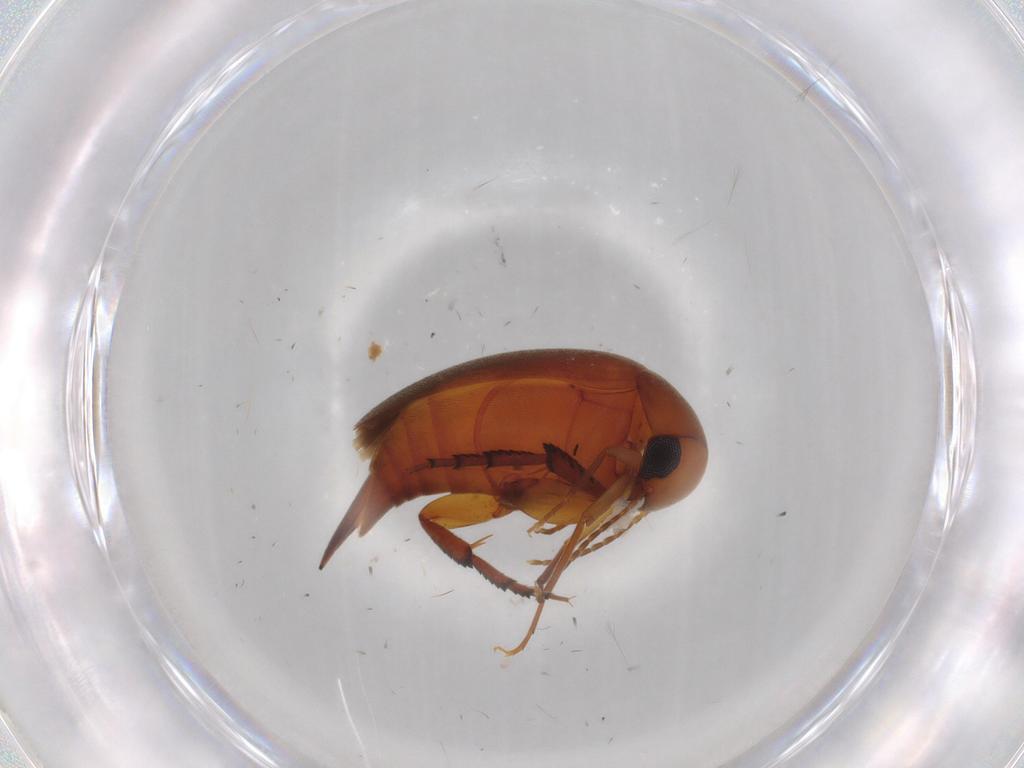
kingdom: Animalia
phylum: Arthropoda
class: Insecta
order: Coleoptera
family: Mordellidae
